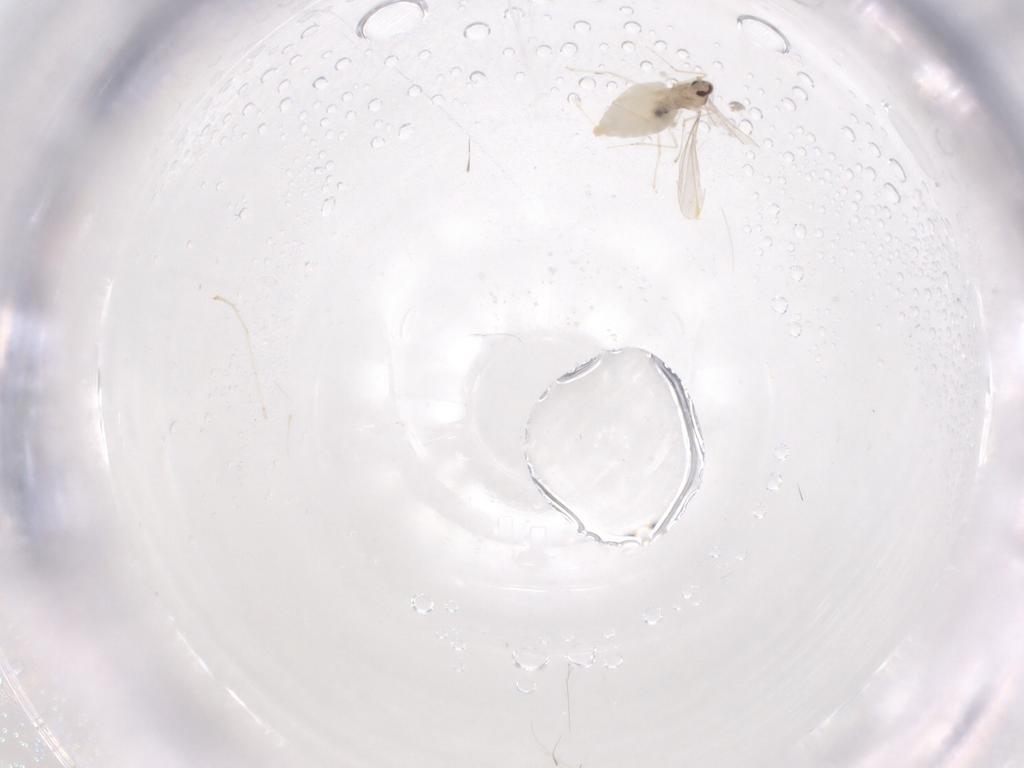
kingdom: Animalia
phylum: Arthropoda
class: Insecta
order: Diptera
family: Cecidomyiidae
